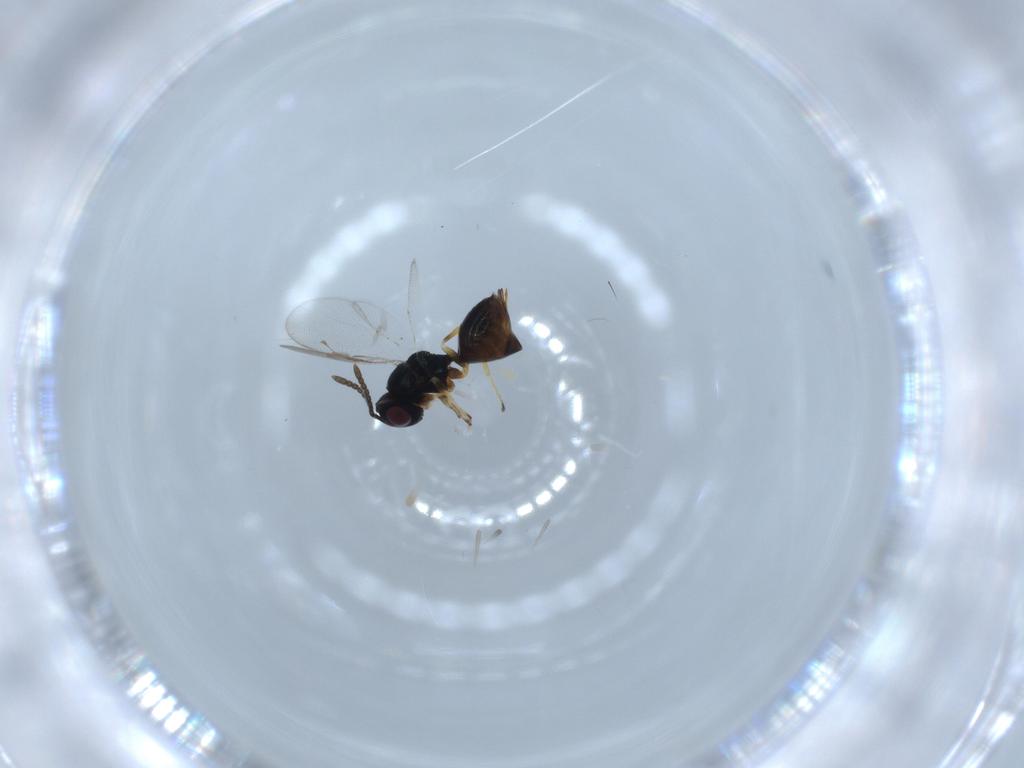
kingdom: Animalia
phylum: Arthropoda
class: Insecta
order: Hymenoptera
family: Pteromalidae
